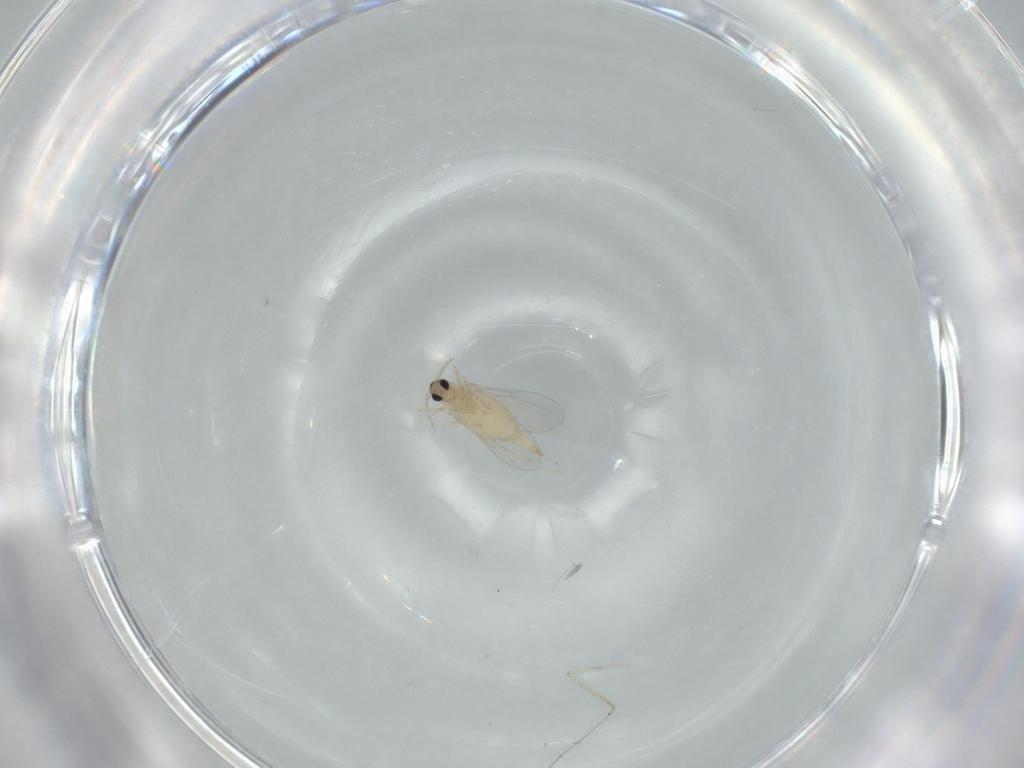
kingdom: Animalia
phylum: Arthropoda
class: Insecta
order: Diptera
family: Cecidomyiidae
